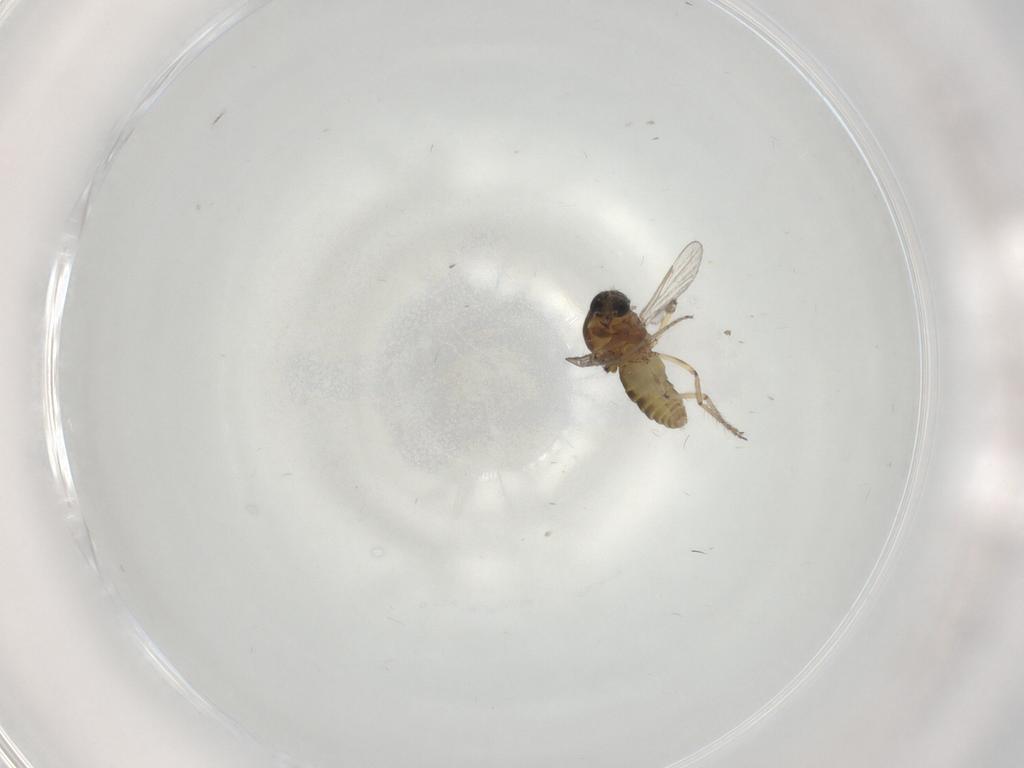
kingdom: Animalia
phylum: Arthropoda
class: Insecta
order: Diptera
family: Ceratopogonidae
